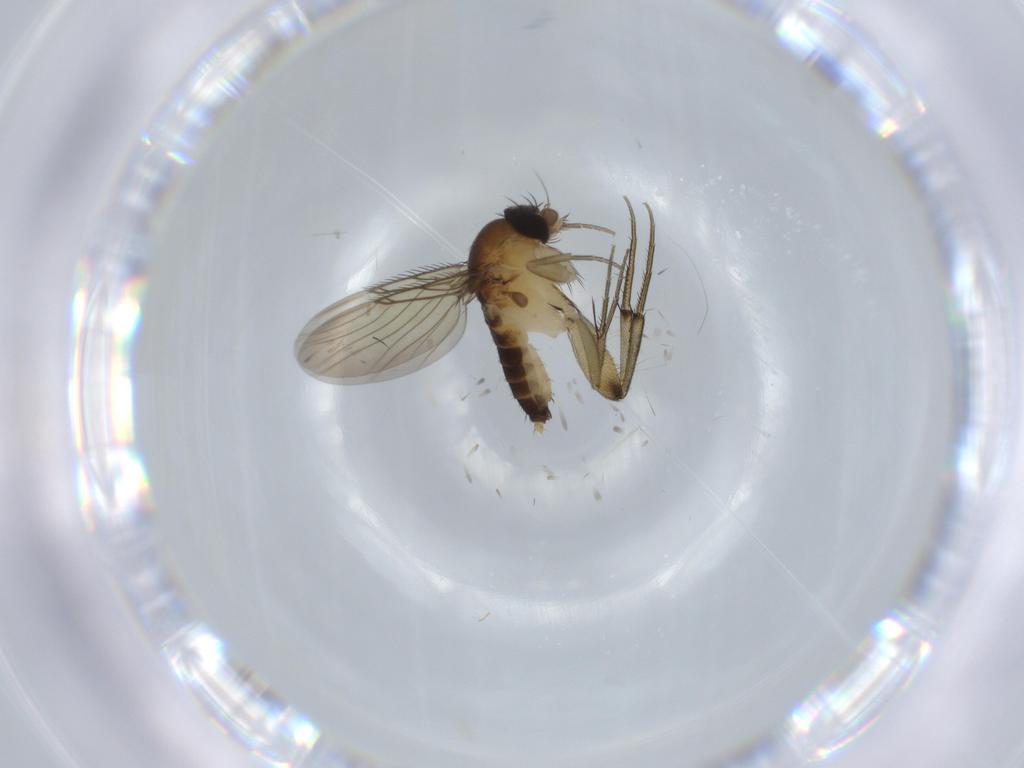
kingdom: Animalia
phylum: Arthropoda
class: Insecta
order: Diptera
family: Phoridae
